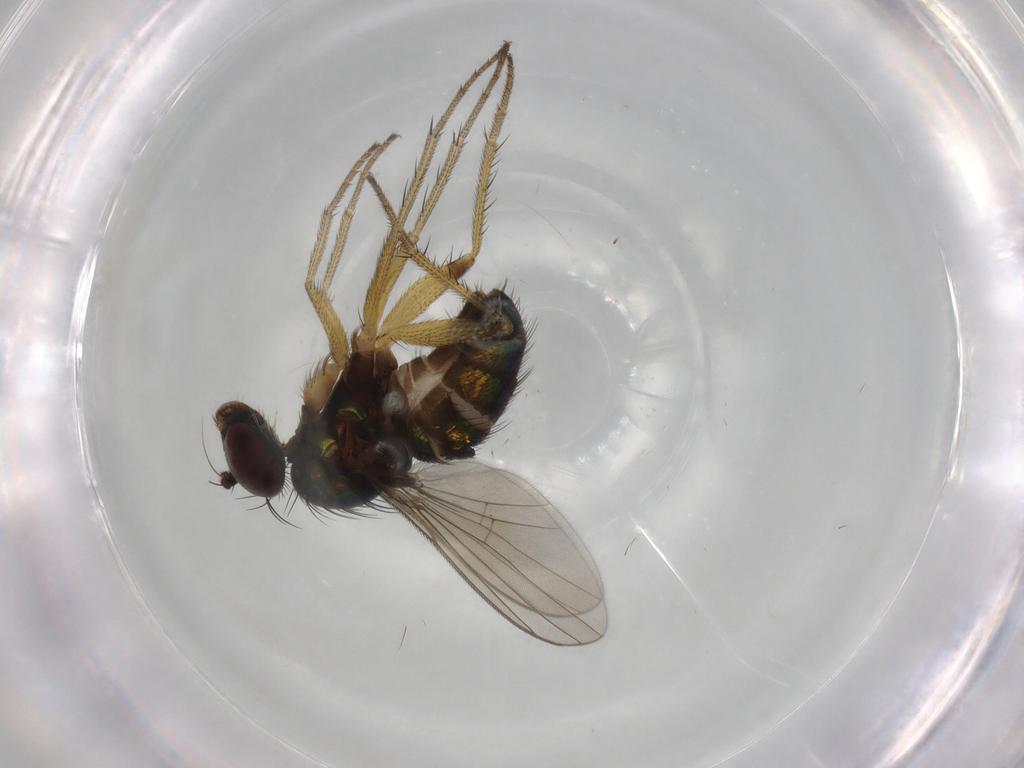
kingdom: Animalia
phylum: Arthropoda
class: Insecta
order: Diptera
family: Dolichopodidae
